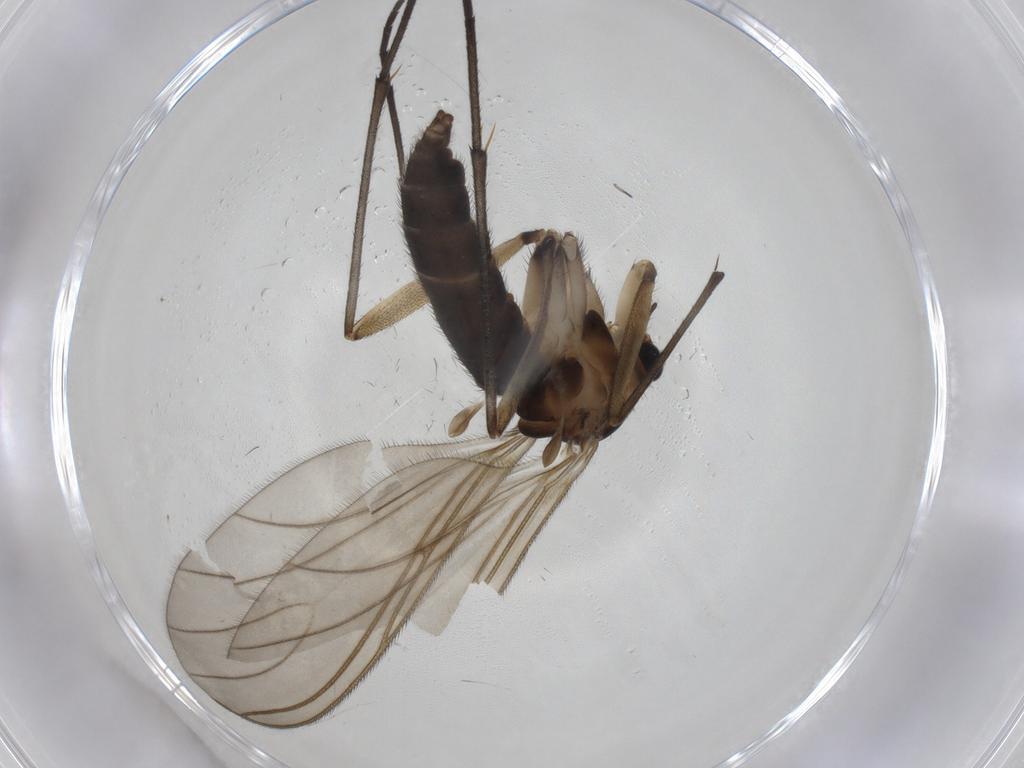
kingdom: Animalia
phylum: Arthropoda
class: Insecta
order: Diptera
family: Sciaridae
